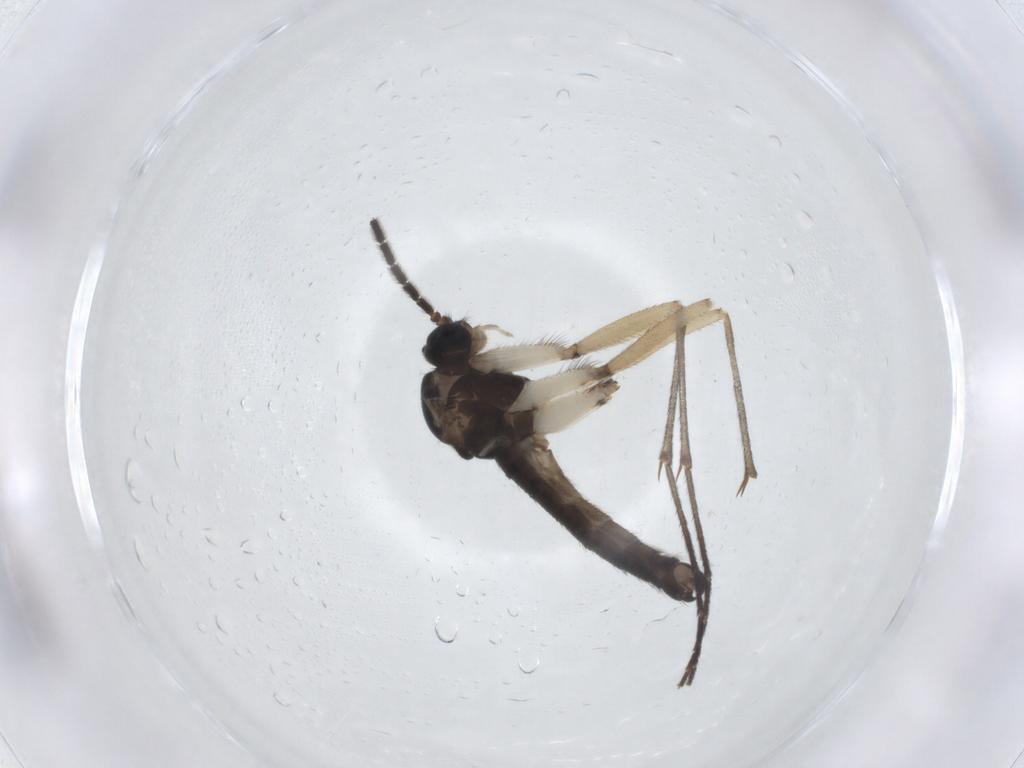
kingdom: Animalia
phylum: Arthropoda
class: Insecta
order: Diptera
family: Sciaridae
